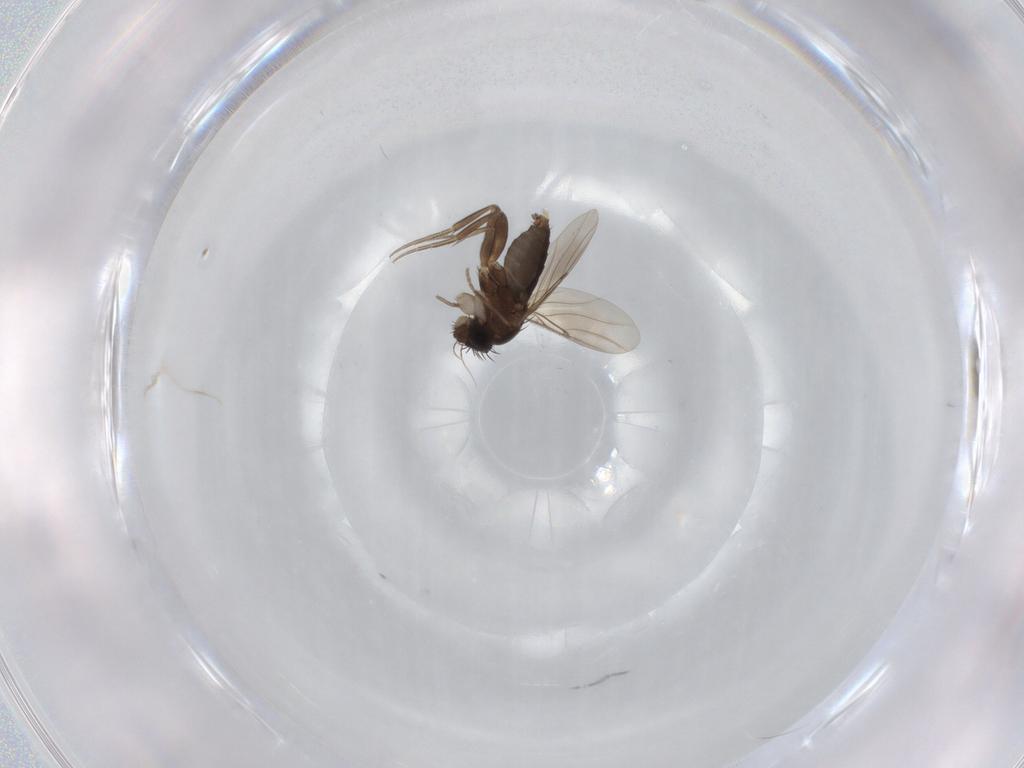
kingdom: Animalia
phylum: Arthropoda
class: Insecta
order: Diptera
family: Phoridae
